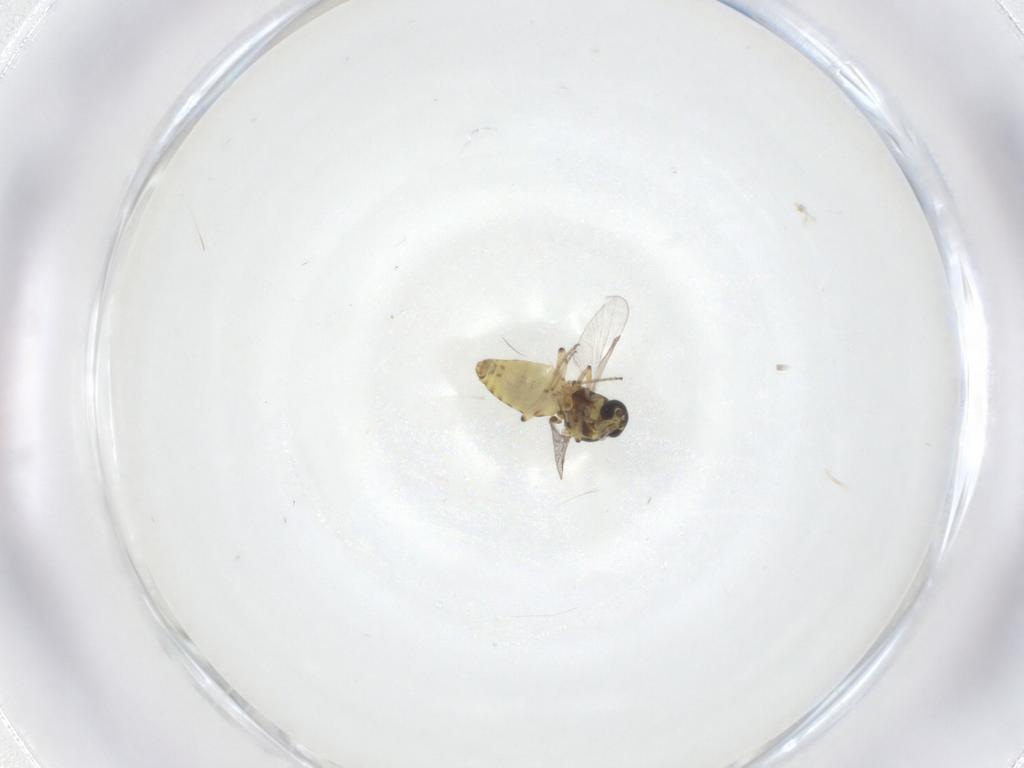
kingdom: Animalia
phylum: Arthropoda
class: Insecta
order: Diptera
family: Ceratopogonidae
